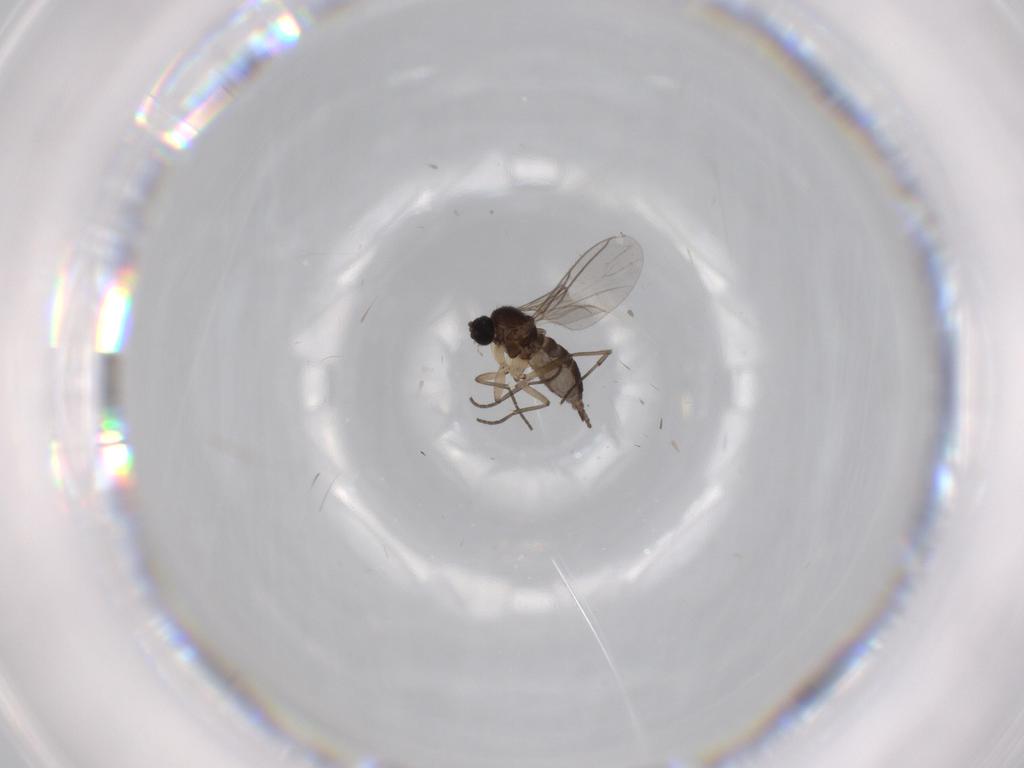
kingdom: Animalia
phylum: Arthropoda
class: Insecta
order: Diptera
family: Sciaridae
